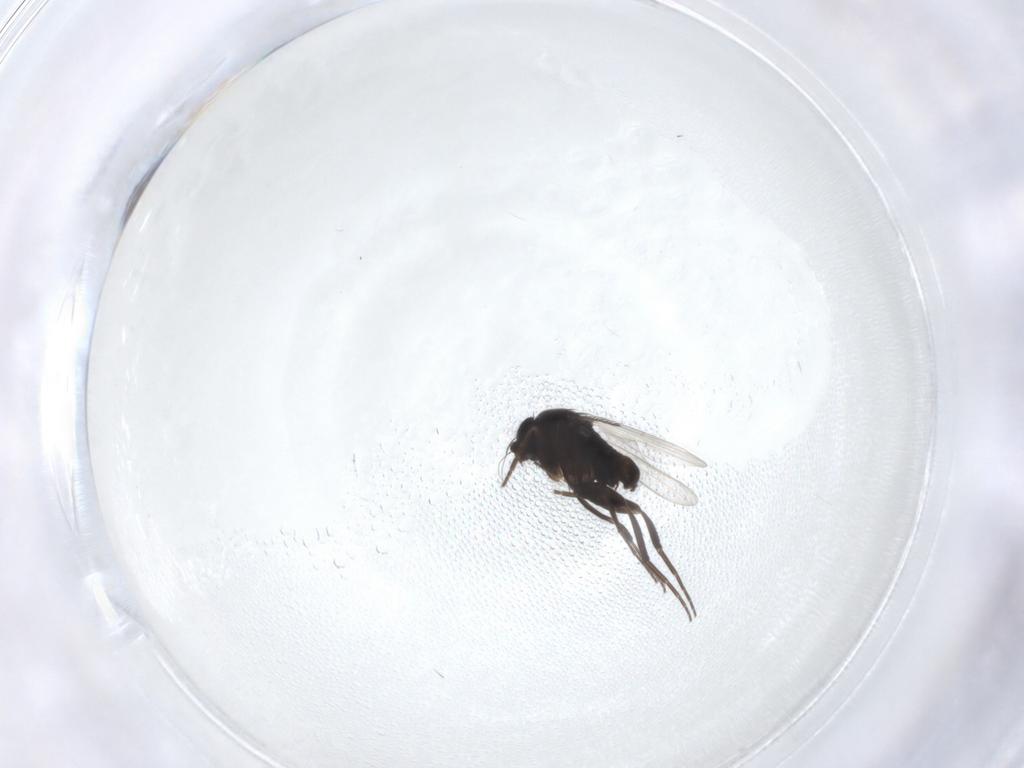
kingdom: Animalia
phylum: Arthropoda
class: Insecta
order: Diptera
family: Phoridae
